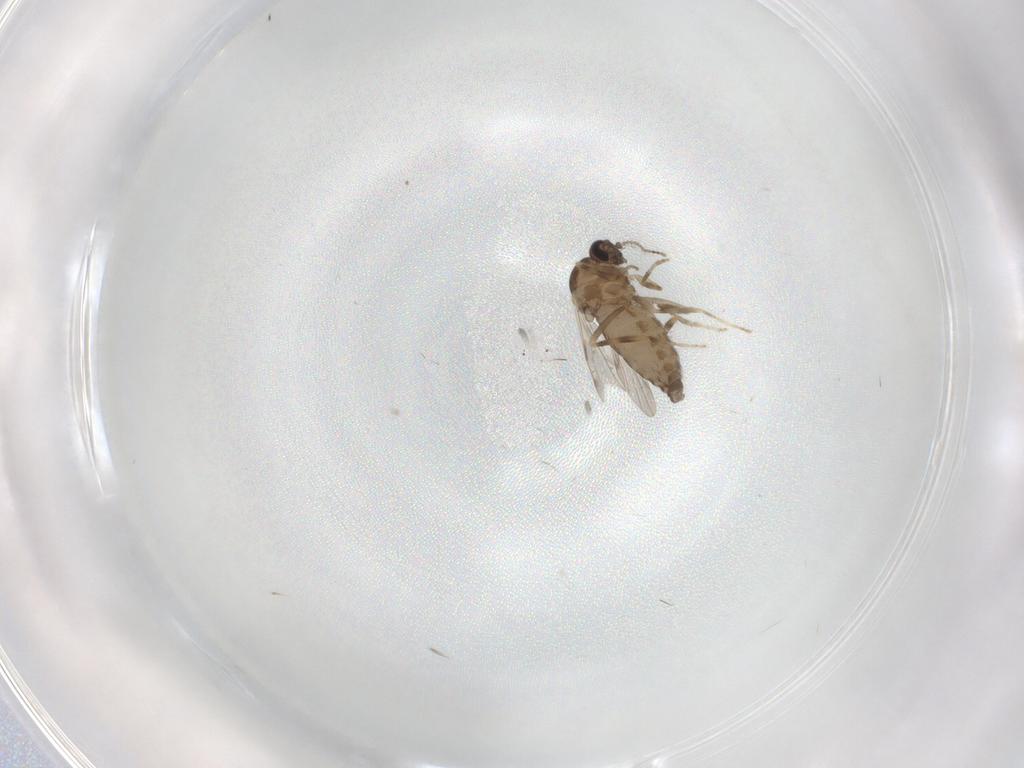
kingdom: Animalia
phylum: Arthropoda
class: Insecta
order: Diptera
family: Ceratopogonidae
